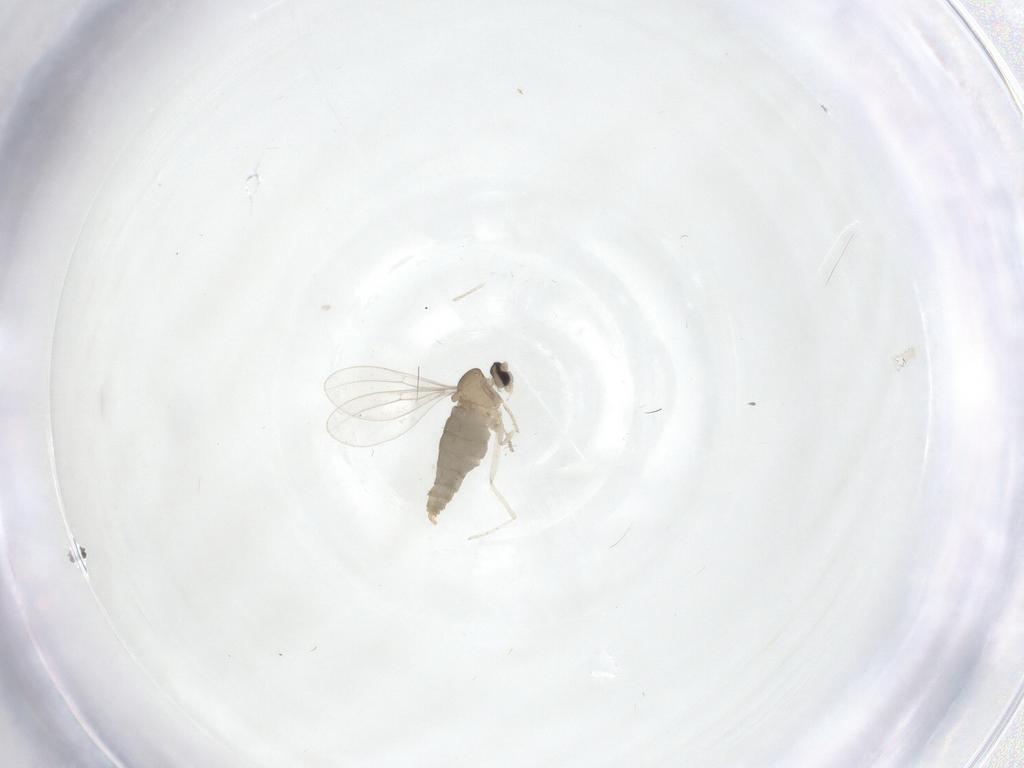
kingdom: Animalia
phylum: Arthropoda
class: Insecta
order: Diptera
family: Cecidomyiidae
